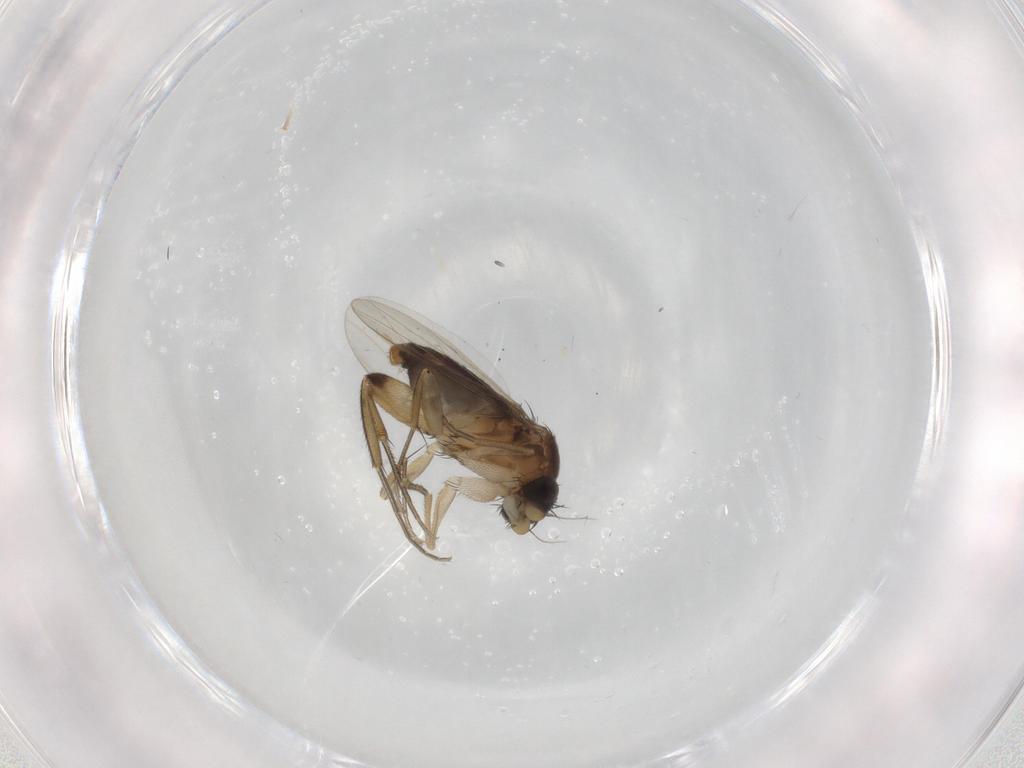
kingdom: Animalia
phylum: Arthropoda
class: Insecta
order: Diptera
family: Phoridae
